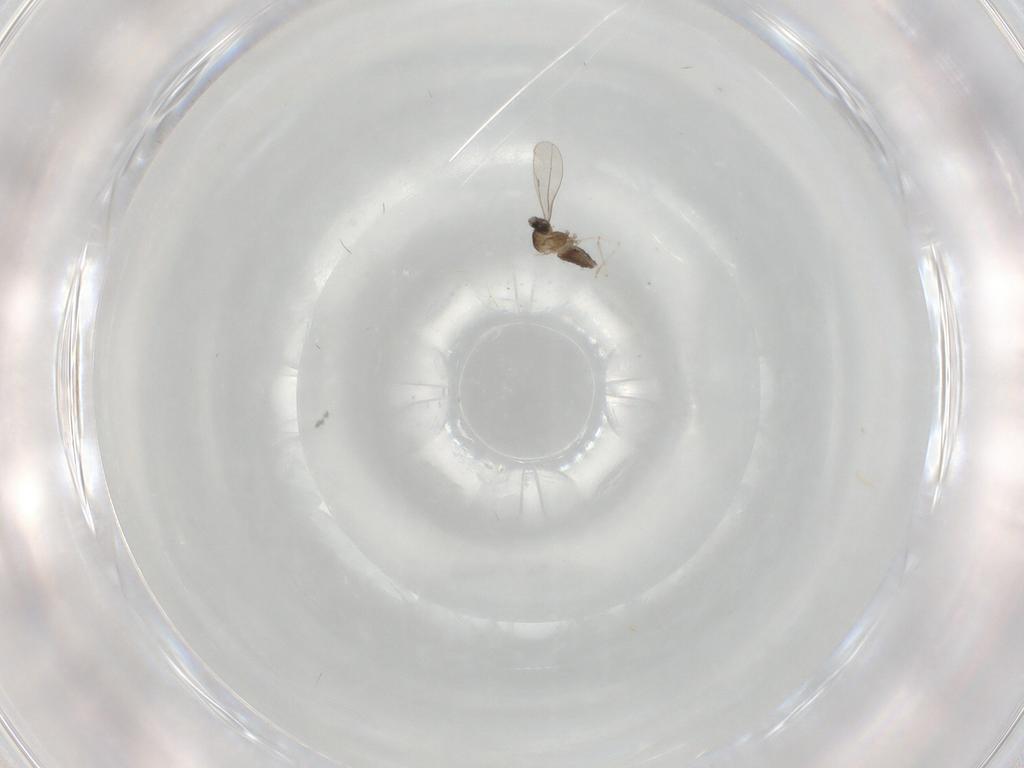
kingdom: Animalia
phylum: Arthropoda
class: Insecta
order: Diptera
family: Cecidomyiidae
